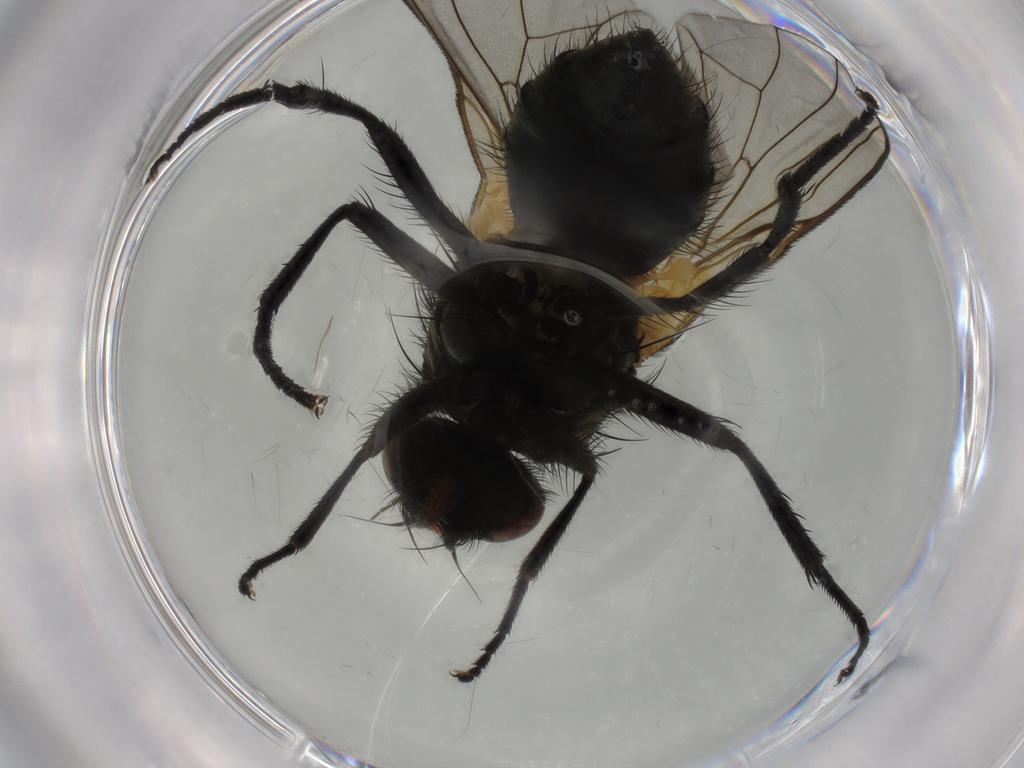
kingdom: Animalia
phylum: Arthropoda
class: Insecta
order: Diptera
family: Muscidae
